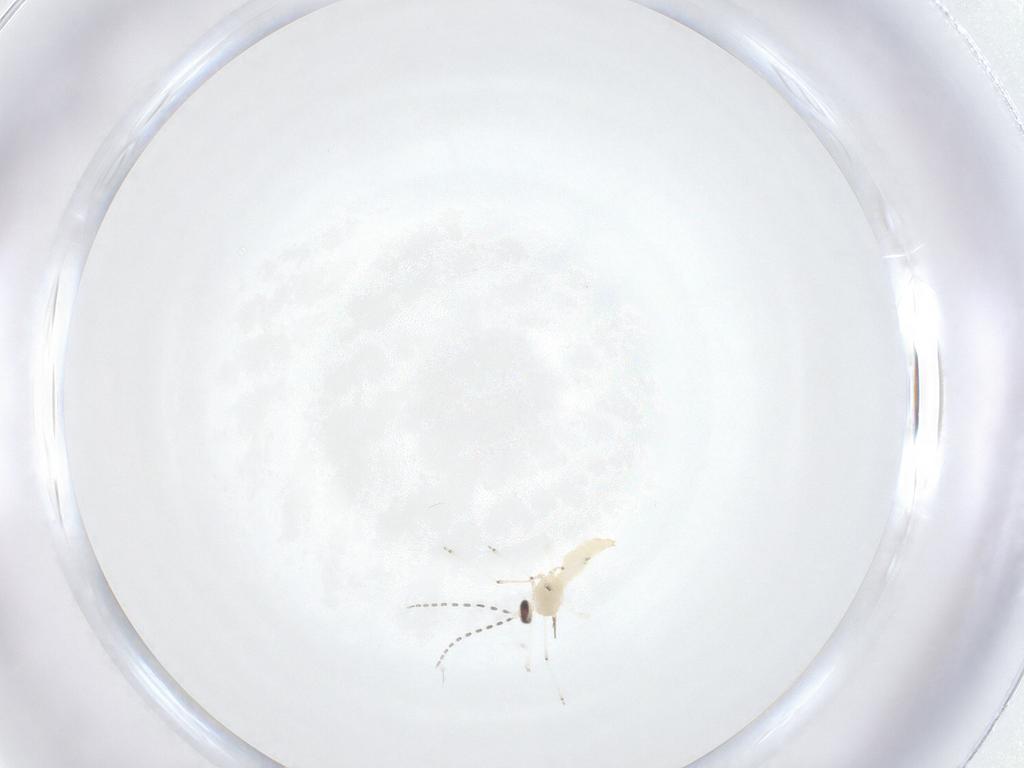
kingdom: Animalia
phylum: Arthropoda
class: Insecta
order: Diptera
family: Cecidomyiidae
